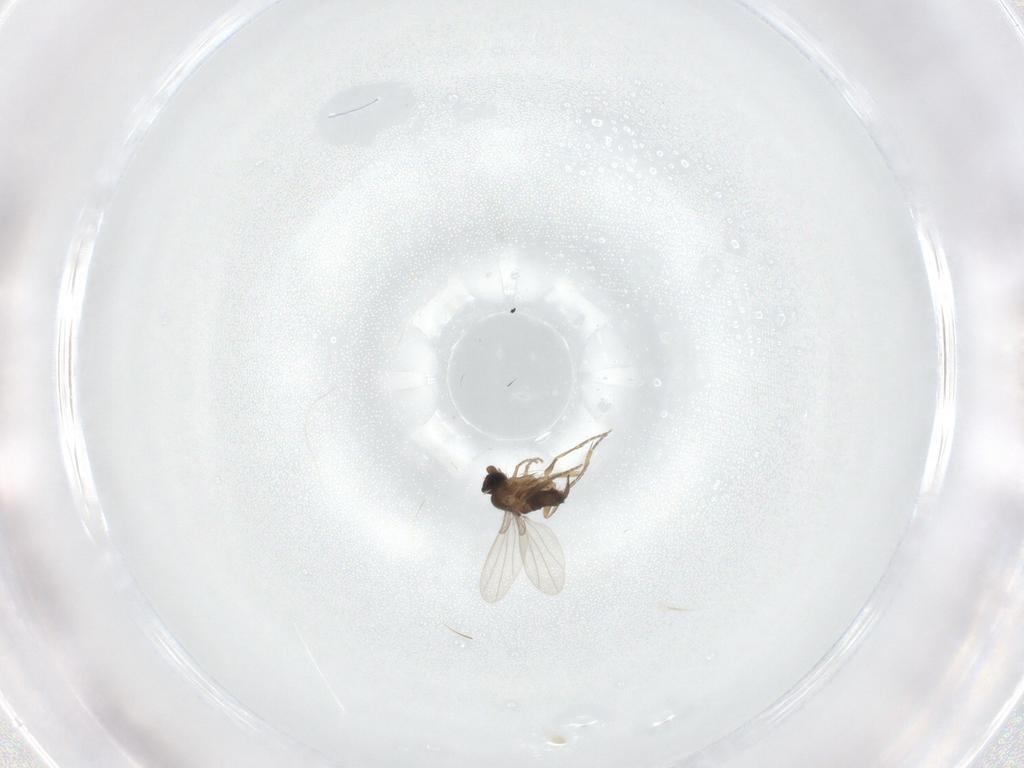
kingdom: Animalia
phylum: Arthropoda
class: Insecta
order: Diptera
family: Phoridae
